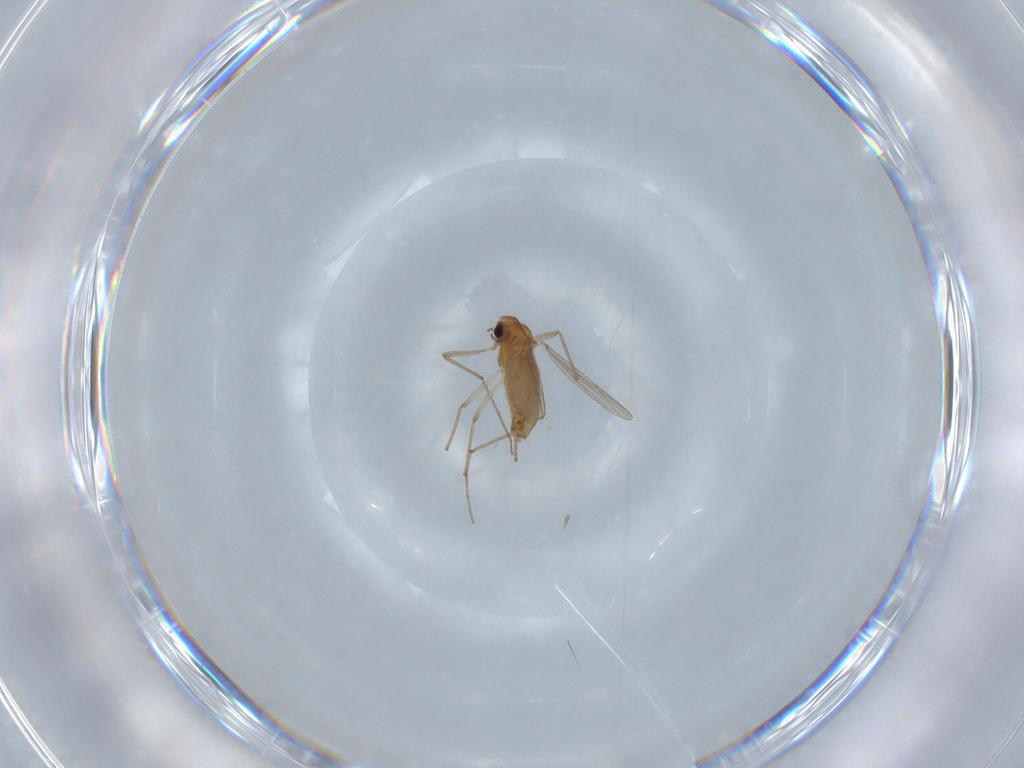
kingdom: Animalia
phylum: Arthropoda
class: Insecta
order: Diptera
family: Chironomidae
